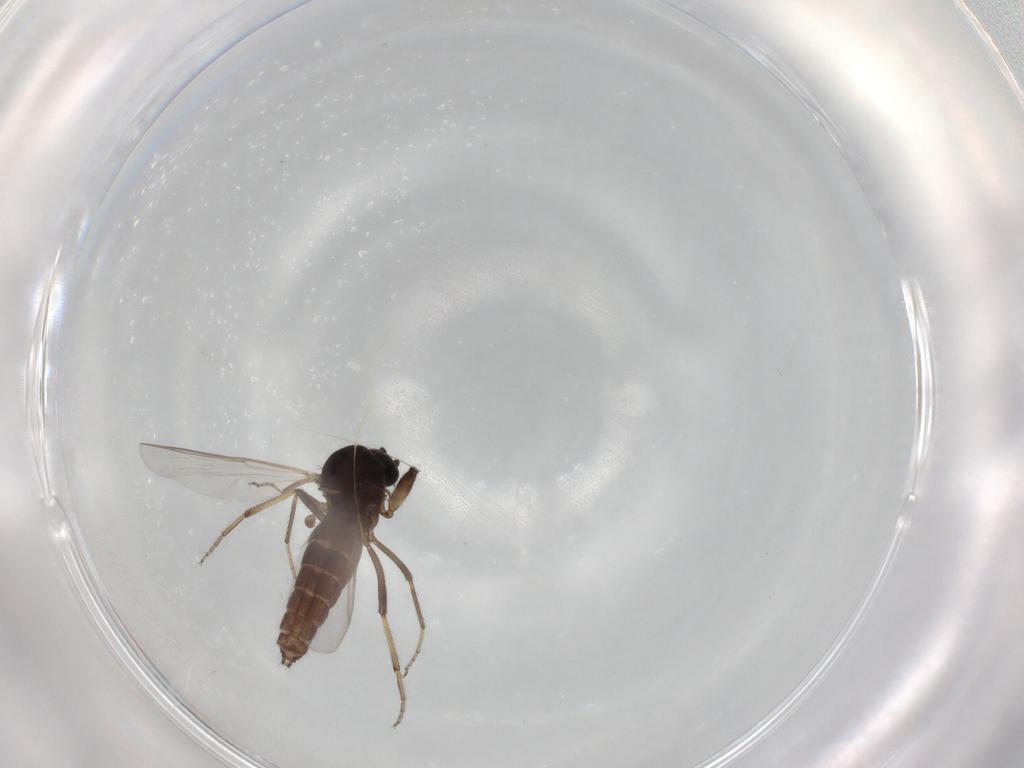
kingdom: Animalia
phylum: Arthropoda
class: Insecta
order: Diptera
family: Ceratopogonidae
